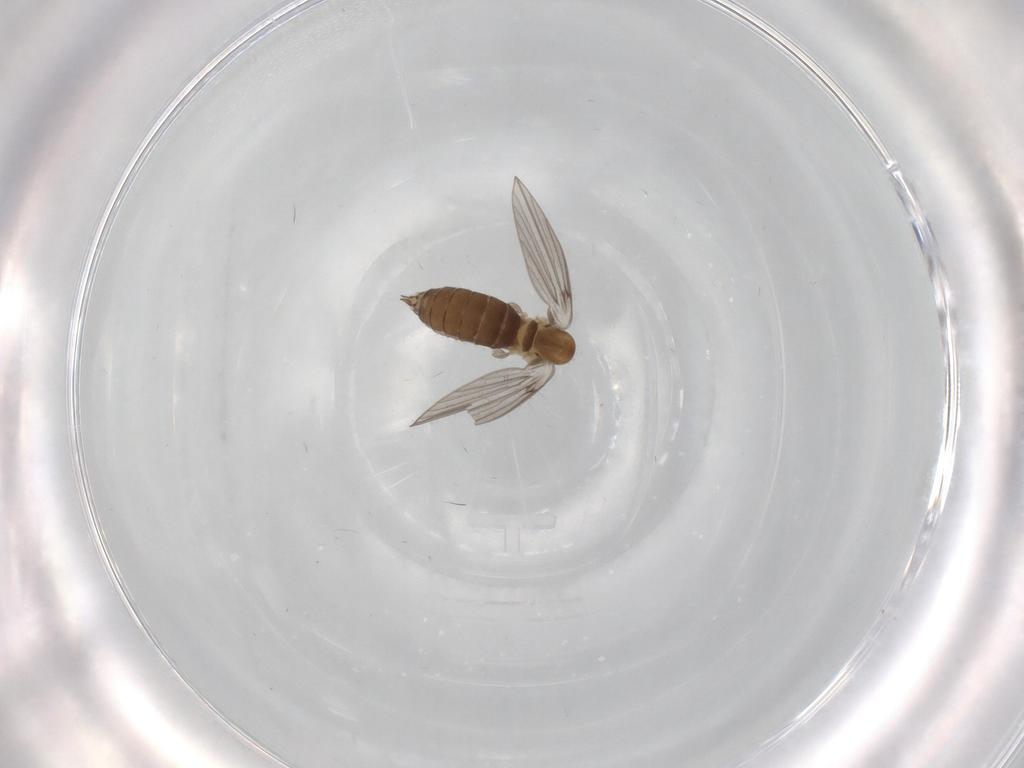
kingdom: Animalia
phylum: Arthropoda
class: Insecta
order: Diptera
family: Psychodidae
